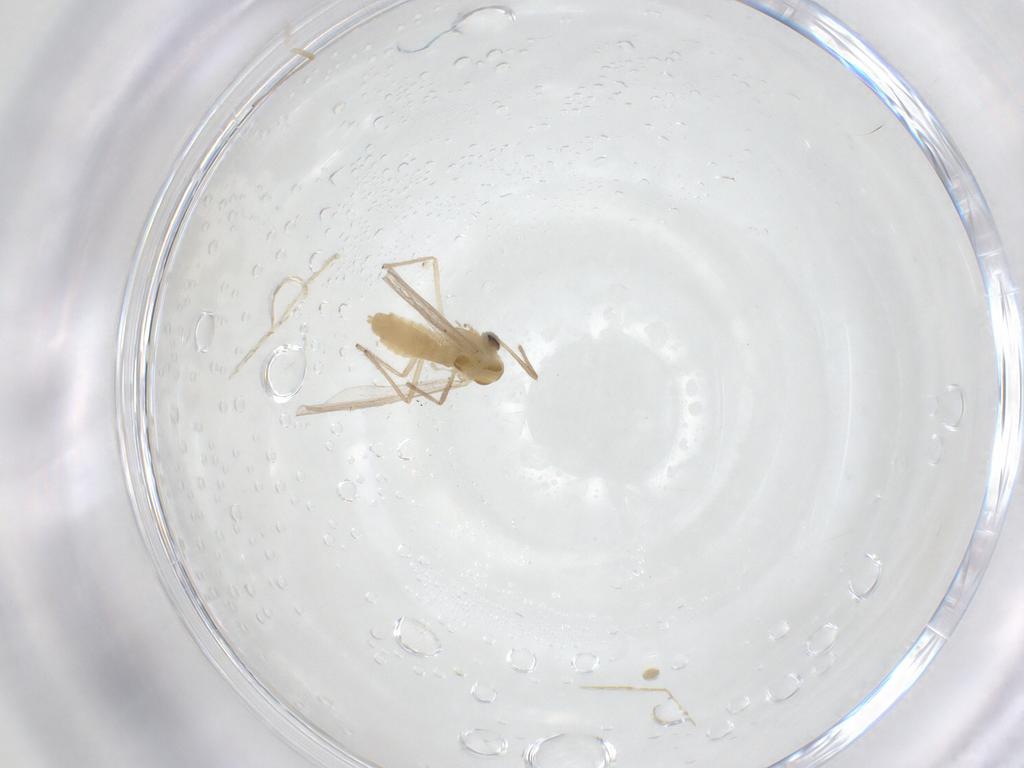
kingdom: Animalia
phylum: Arthropoda
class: Insecta
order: Diptera
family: Chironomidae
